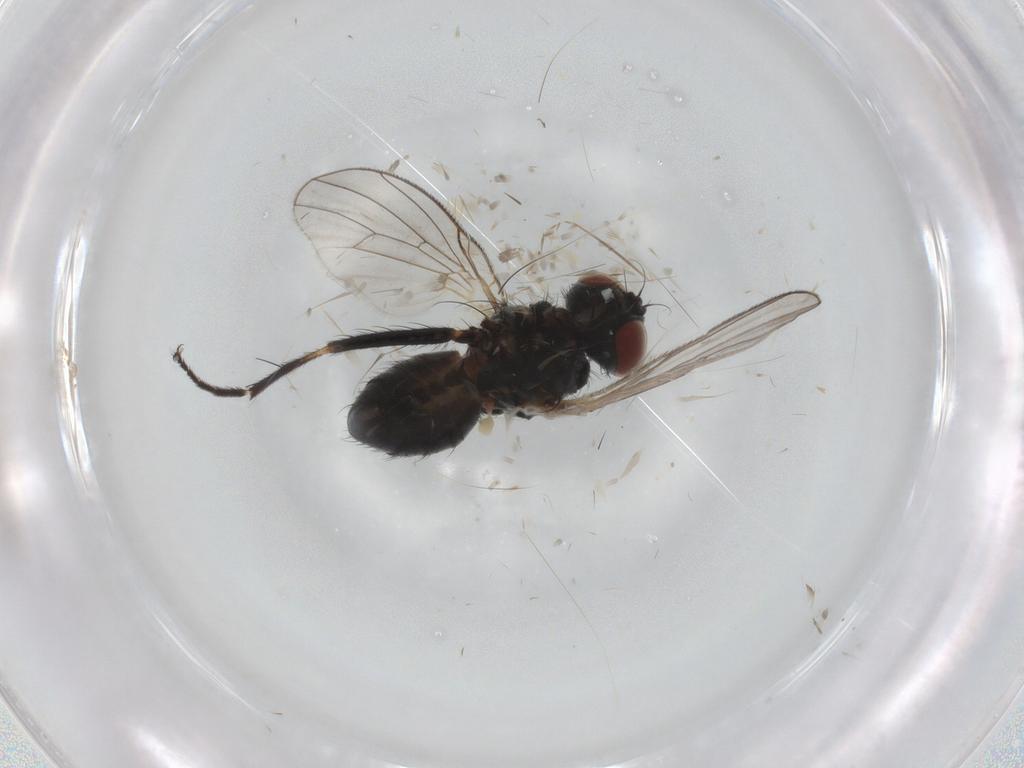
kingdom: Animalia
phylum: Arthropoda
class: Insecta
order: Diptera
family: Muscidae
